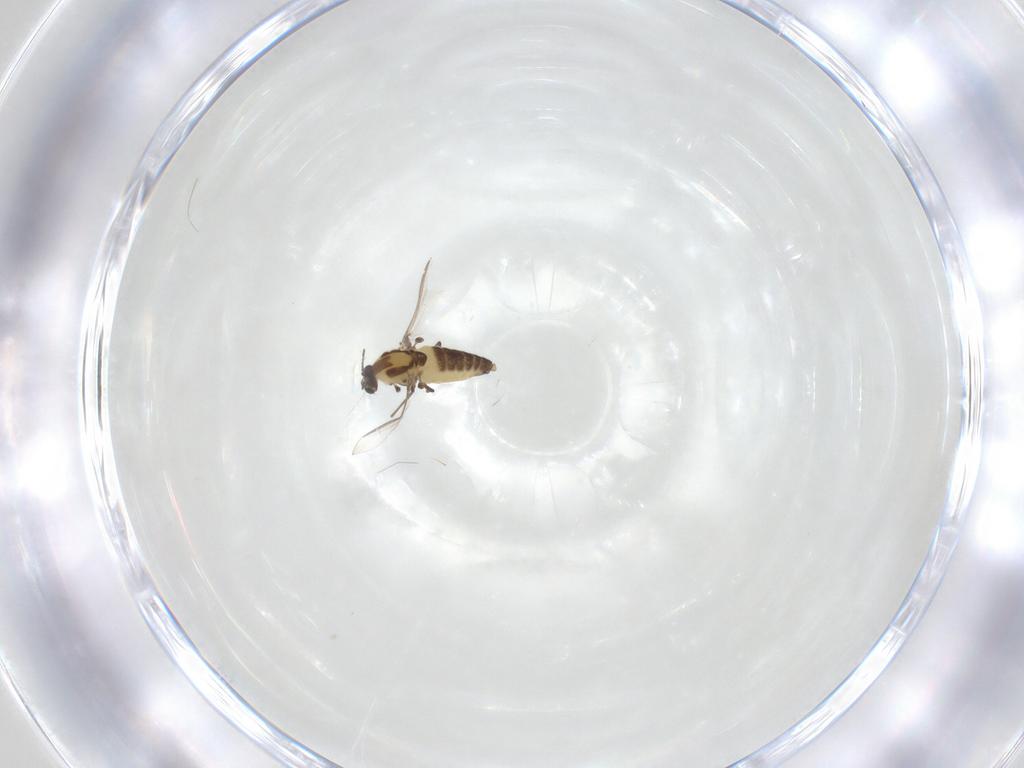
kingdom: Animalia
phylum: Arthropoda
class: Insecta
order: Diptera
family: Chironomidae
